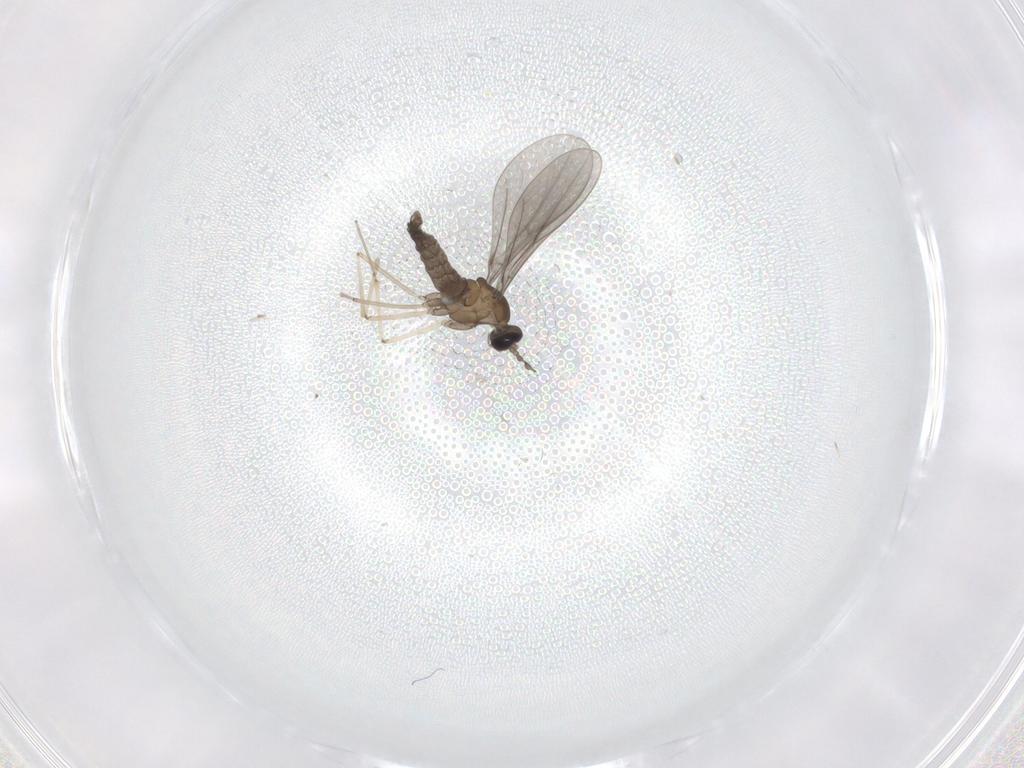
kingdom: Animalia
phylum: Arthropoda
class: Insecta
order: Diptera
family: Cecidomyiidae
